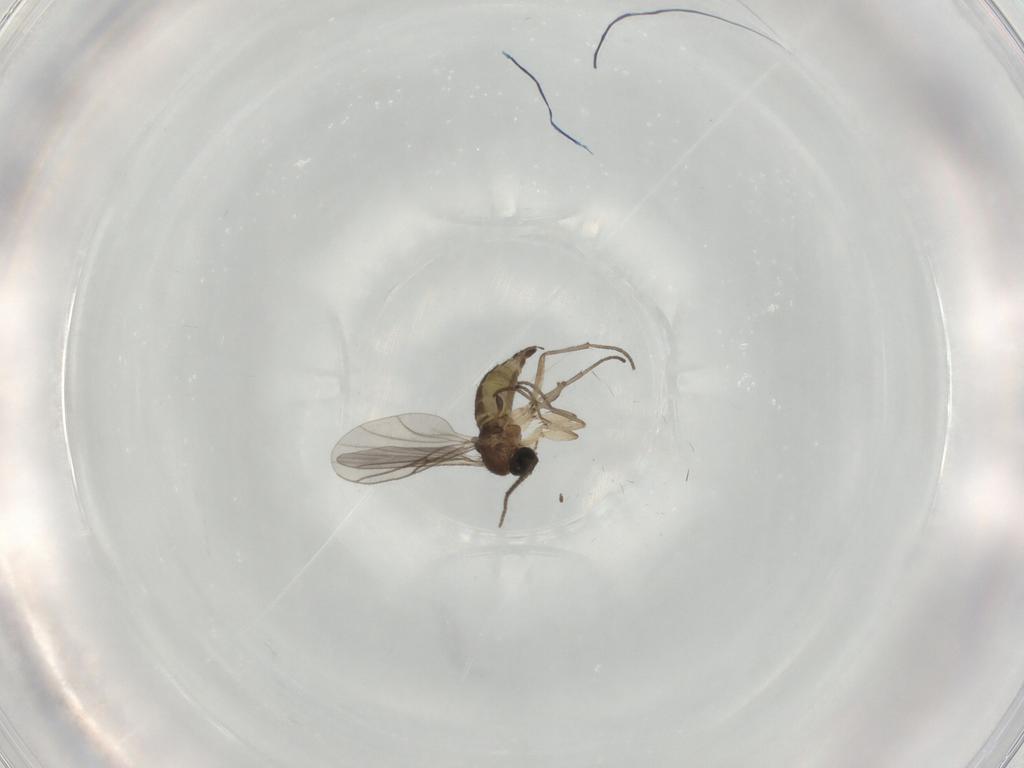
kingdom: Animalia
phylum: Arthropoda
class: Insecta
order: Diptera
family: Sciaridae
